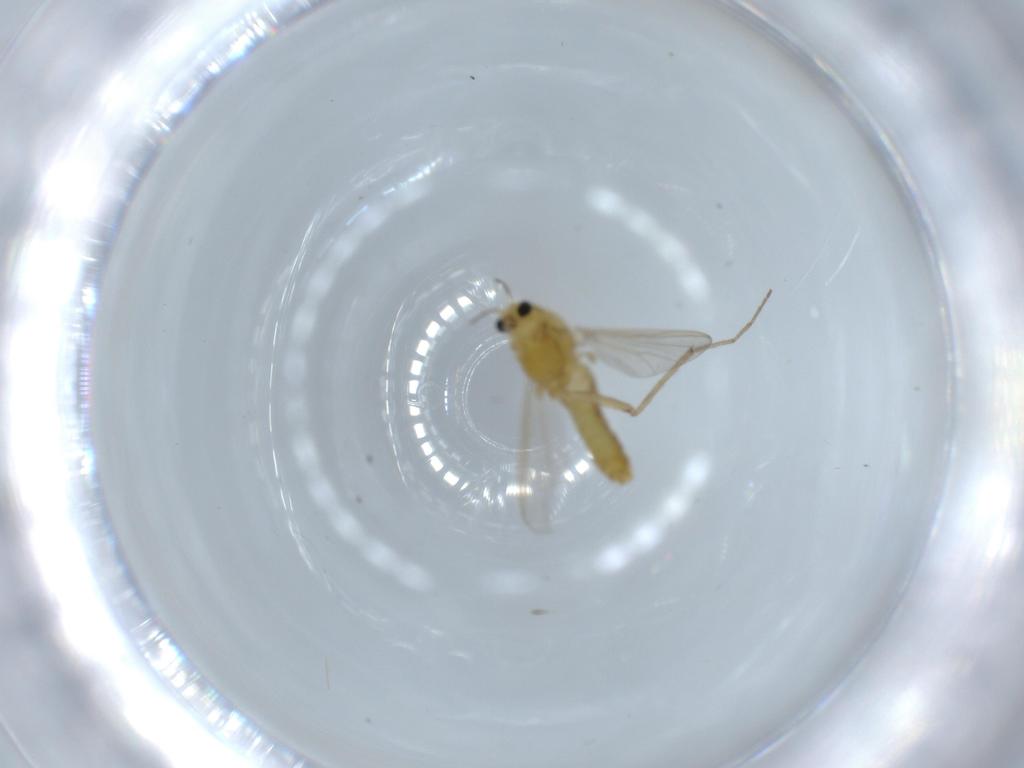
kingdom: Animalia
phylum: Arthropoda
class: Insecta
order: Diptera
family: Chironomidae
